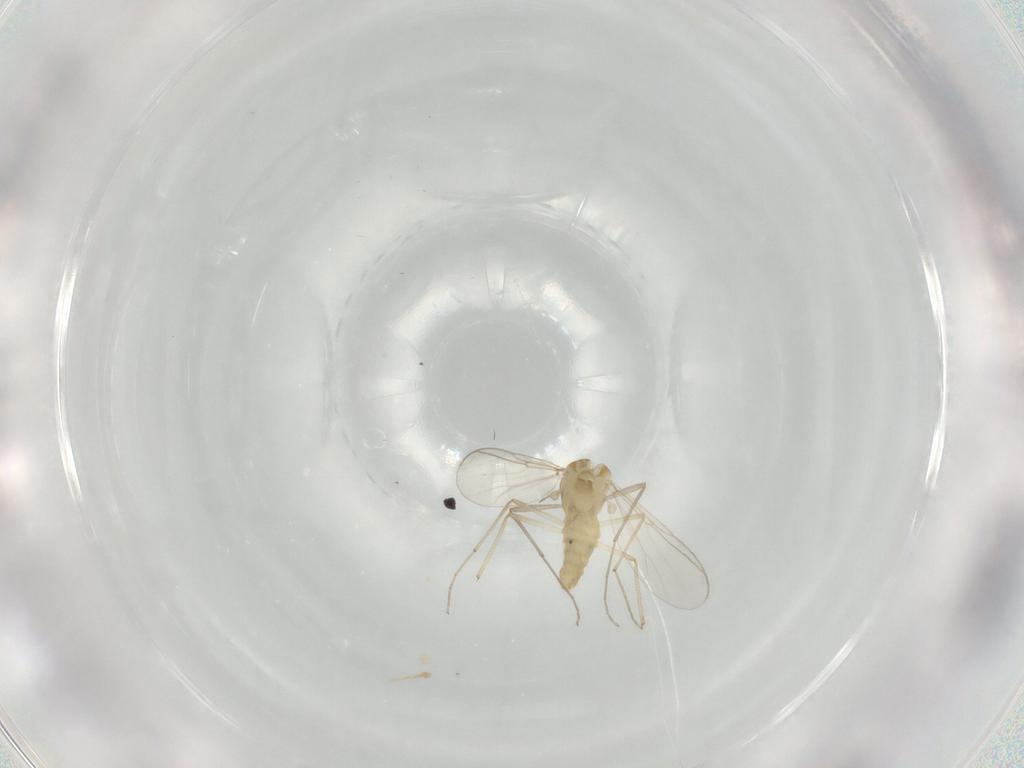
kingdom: Animalia
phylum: Arthropoda
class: Insecta
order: Diptera
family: Chironomidae
